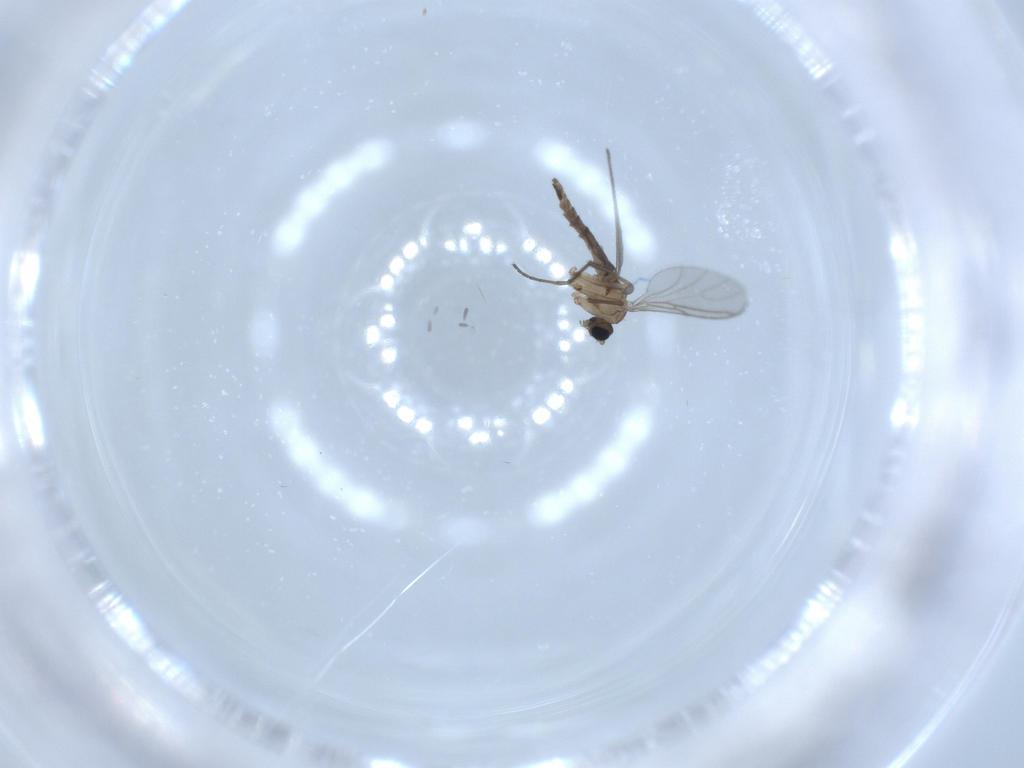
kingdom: Animalia
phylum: Arthropoda
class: Insecta
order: Diptera
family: Sciaridae
